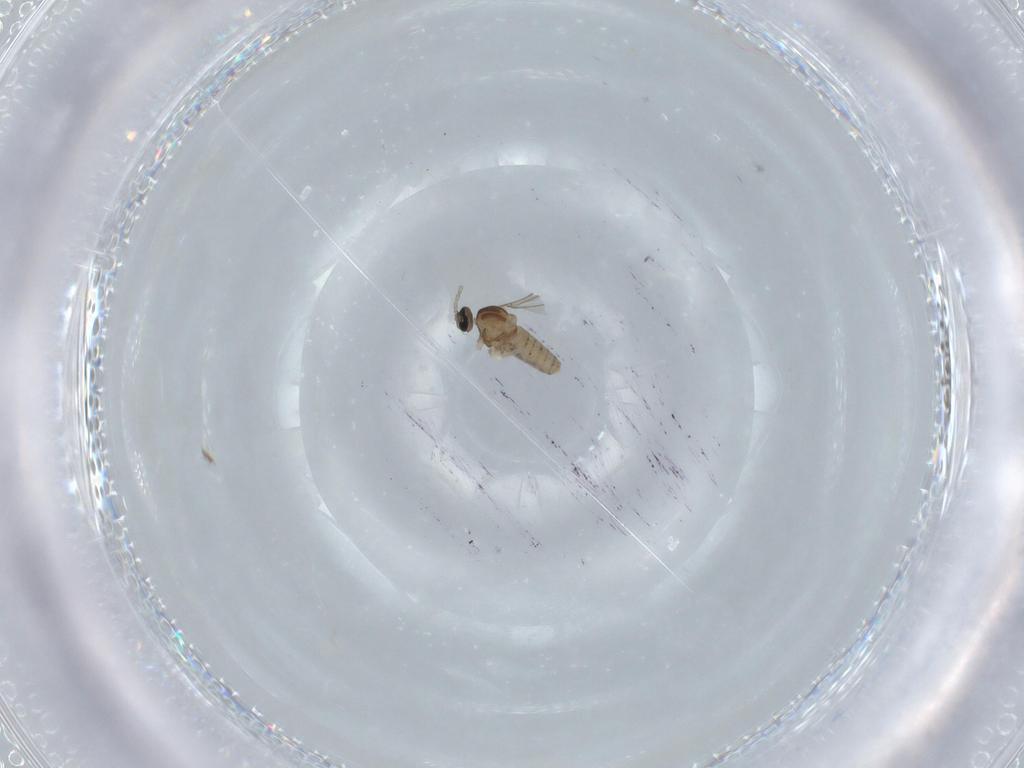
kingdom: Animalia
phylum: Arthropoda
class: Insecta
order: Diptera
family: Cecidomyiidae
